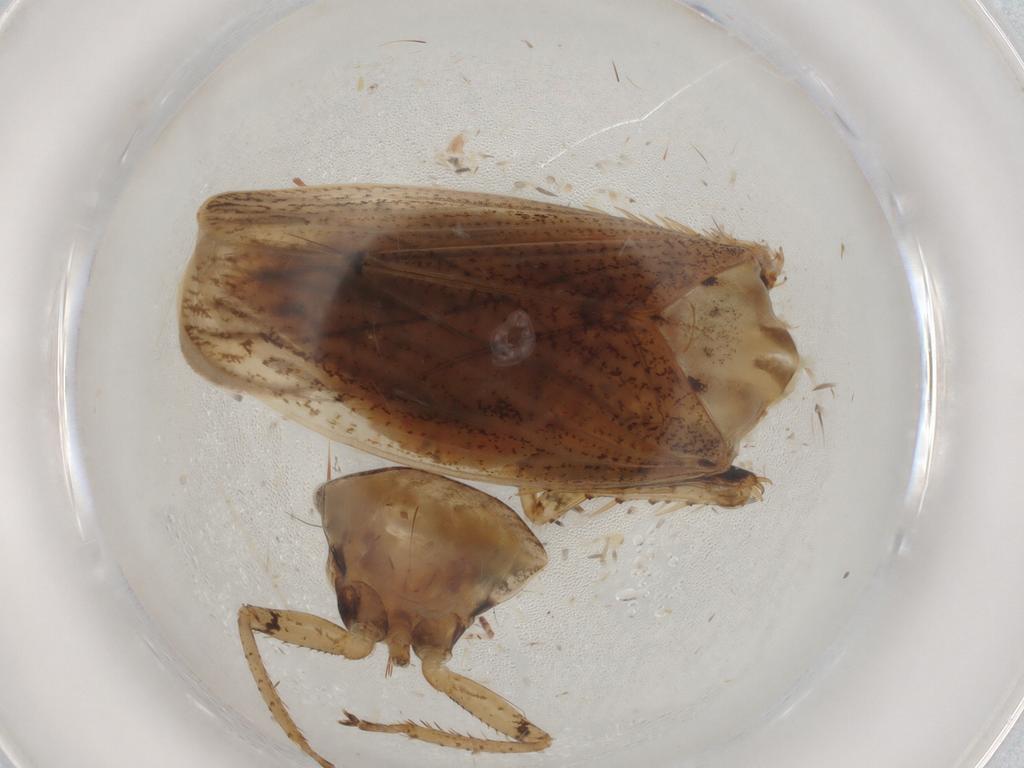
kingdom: Animalia
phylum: Arthropoda
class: Insecta
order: Hemiptera
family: Cicadellidae
